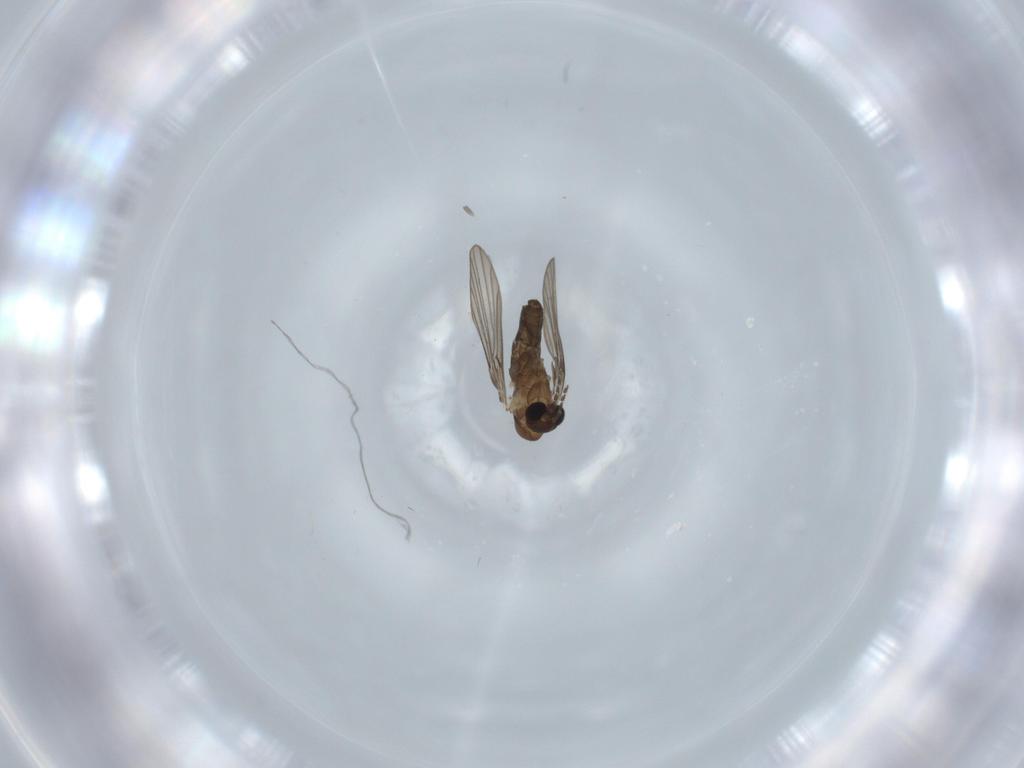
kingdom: Animalia
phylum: Arthropoda
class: Insecta
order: Diptera
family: Psychodidae
